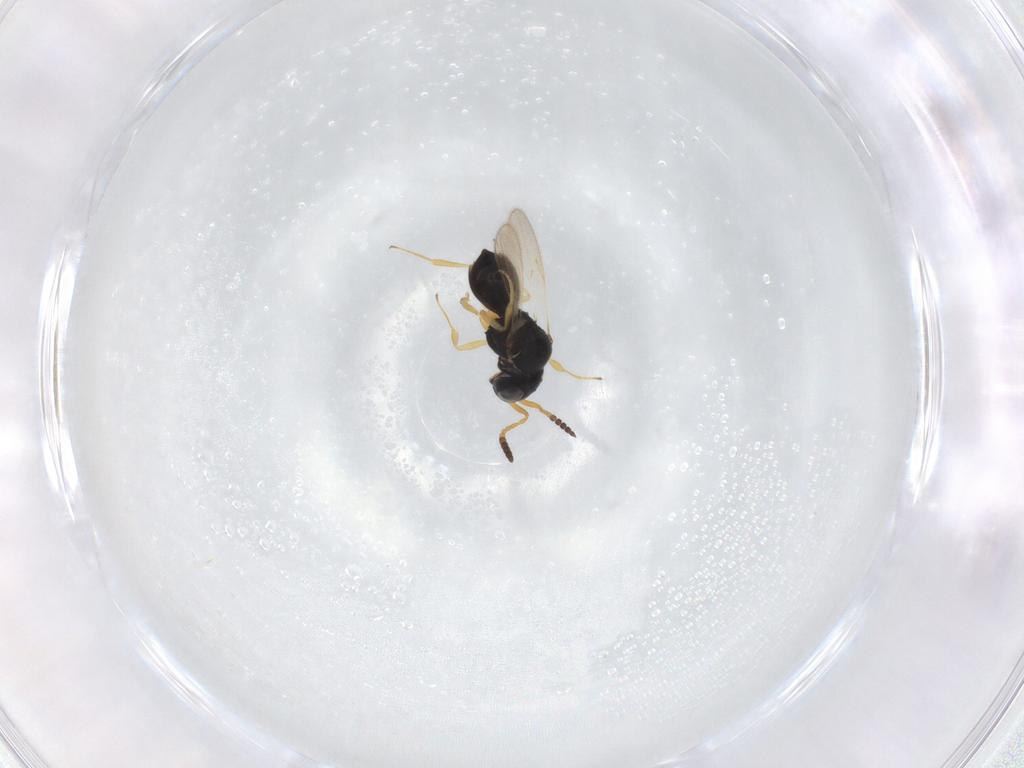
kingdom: Animalia
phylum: Arthropoda
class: Insecta
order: Hymenoptera
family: Scelionidae
